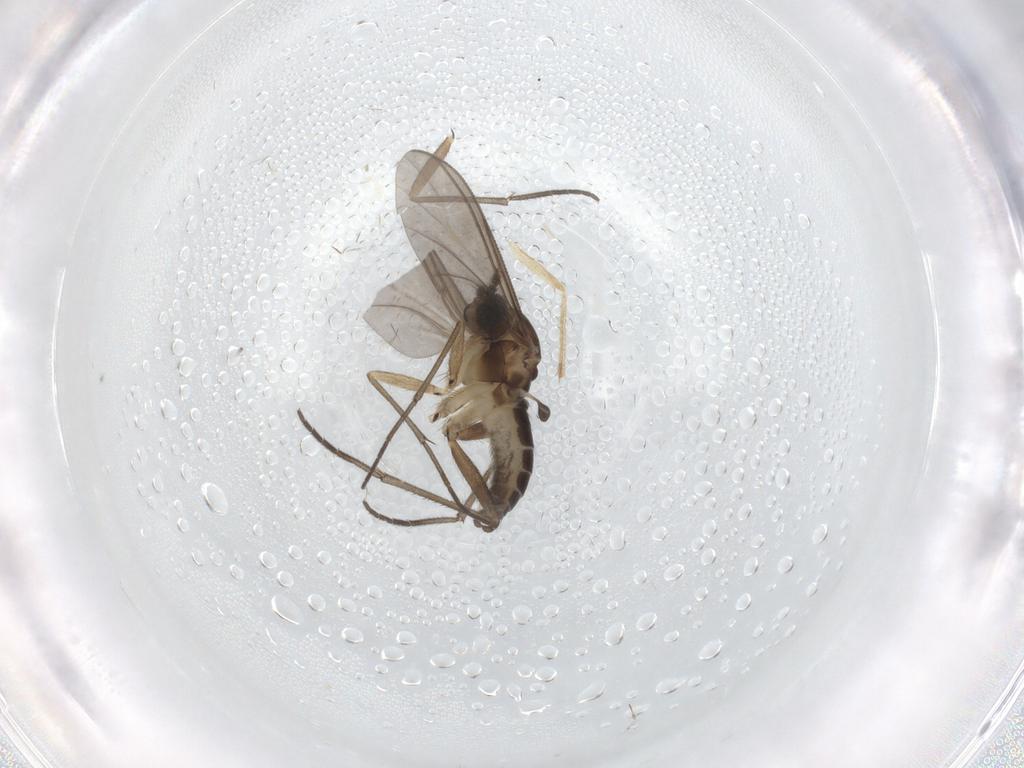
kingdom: Animalia
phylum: Arthropoda
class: Insecta
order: Diptera
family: Sciaridae
